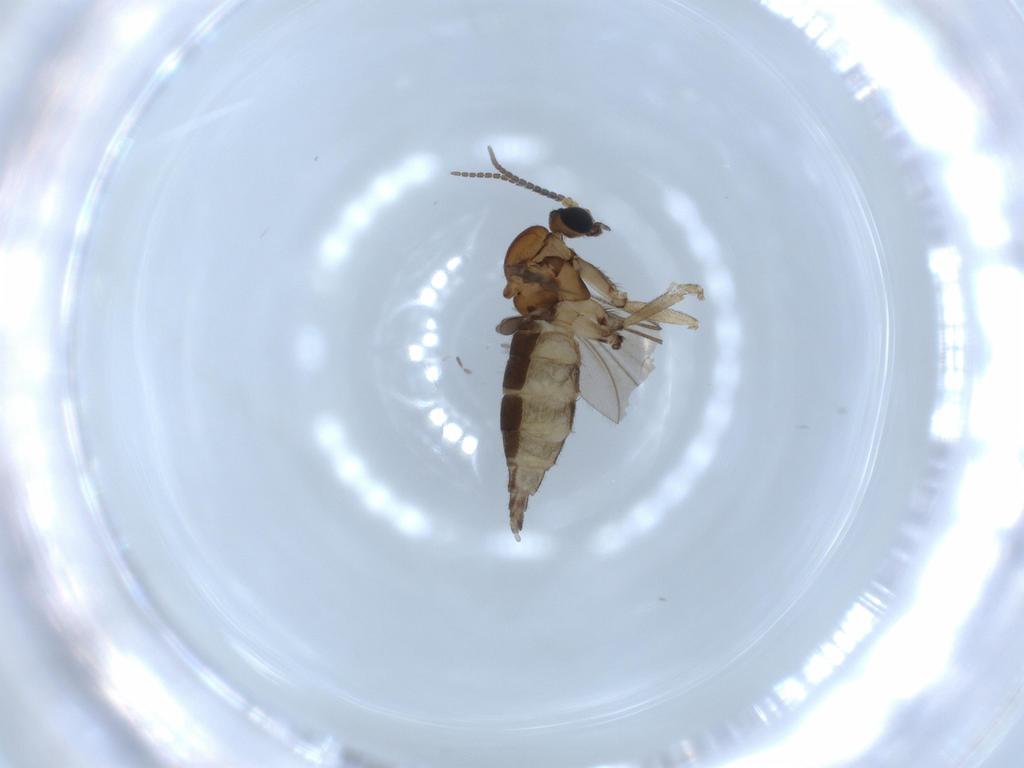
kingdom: Animalia
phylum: Arthropoda
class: Insecta
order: Diptera
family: Sciaridae
